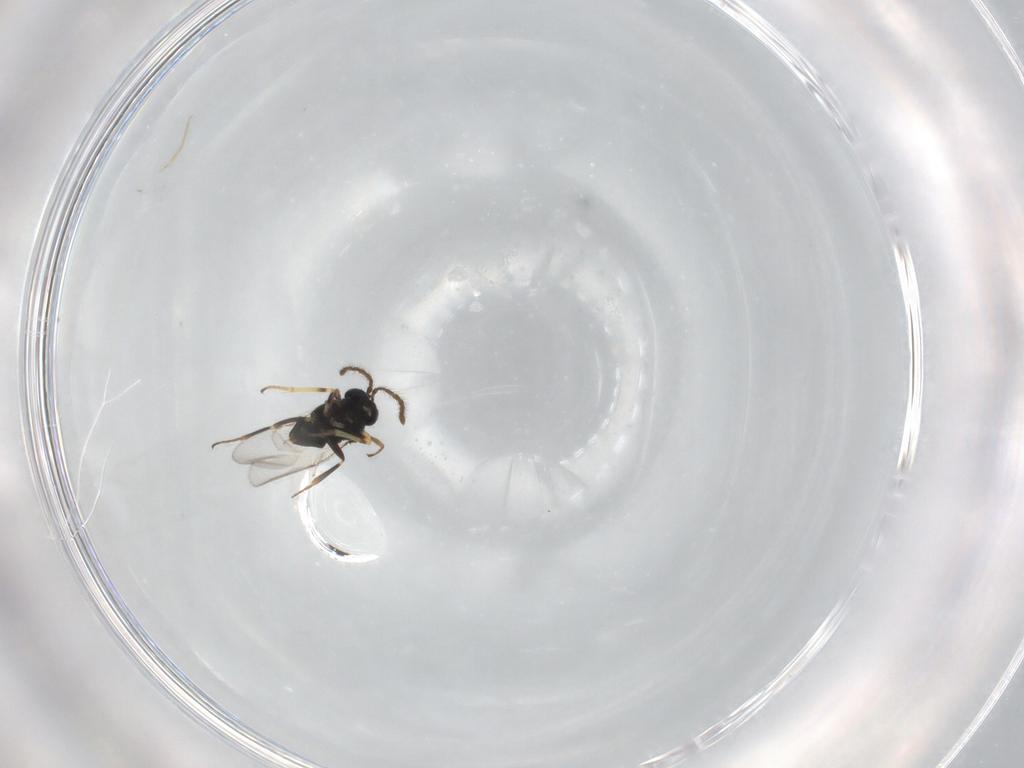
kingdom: Animalia
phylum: Arthropoda
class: Insecta
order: Hymenoptera
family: Encyrtidae
